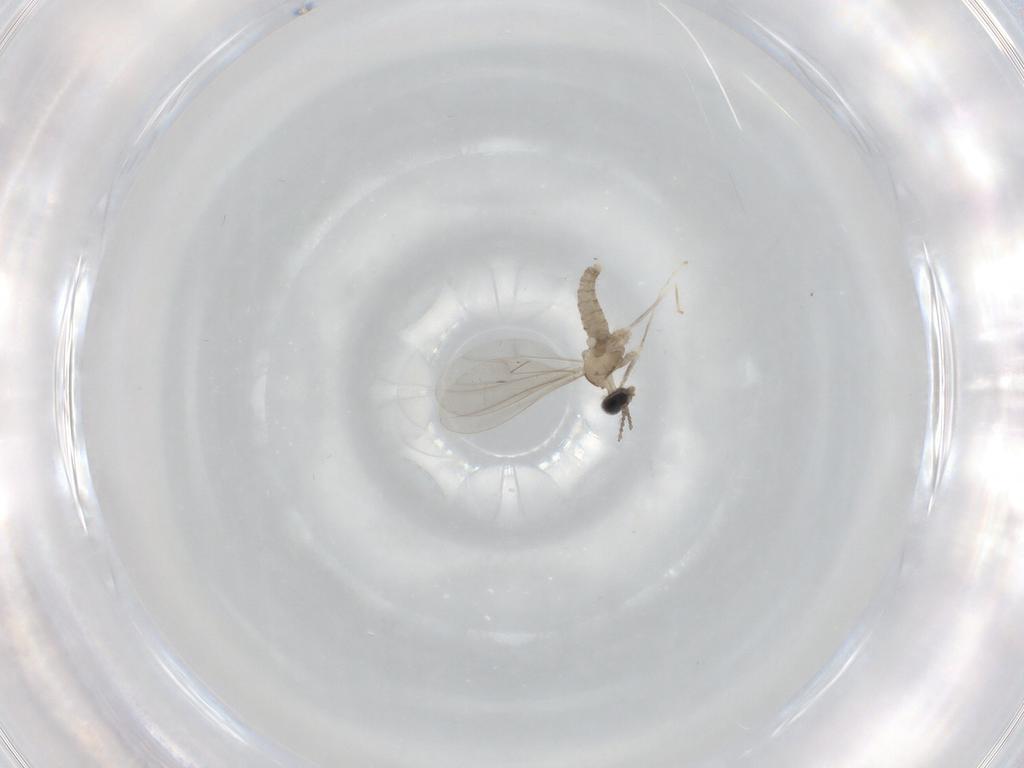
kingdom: Animalia
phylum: Arthropoda
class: Insecta
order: Diptera
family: Cecidomyiidae
